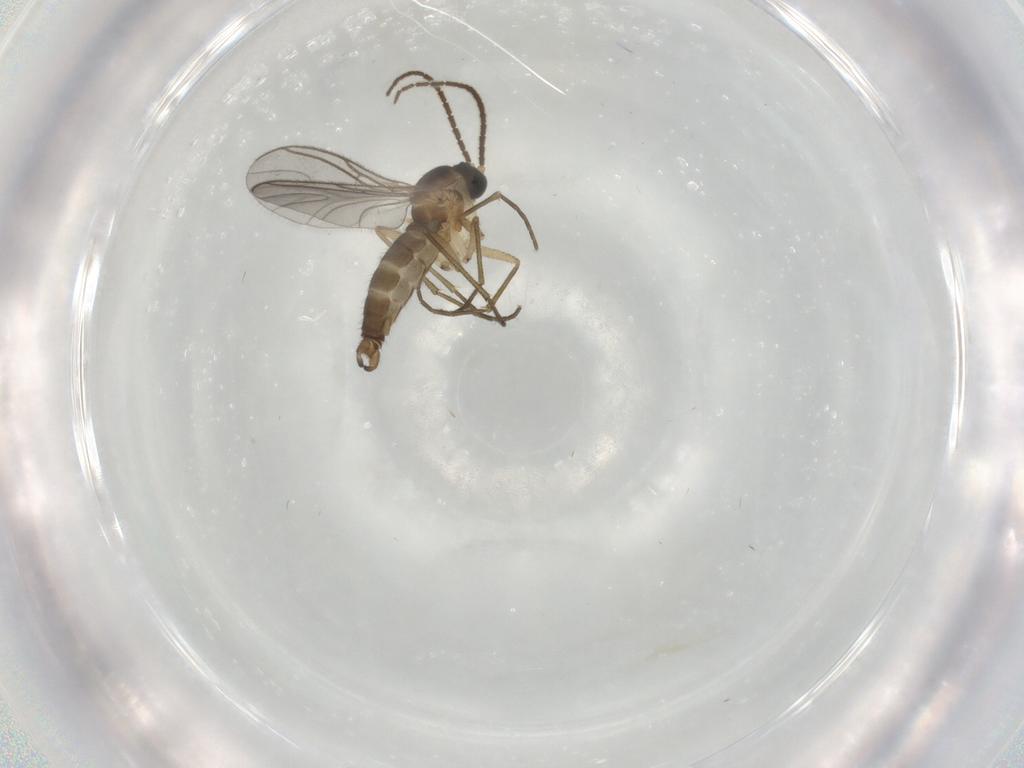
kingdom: Animalia
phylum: Arthropoda
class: Insecta
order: Diptera
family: Sciaridae
